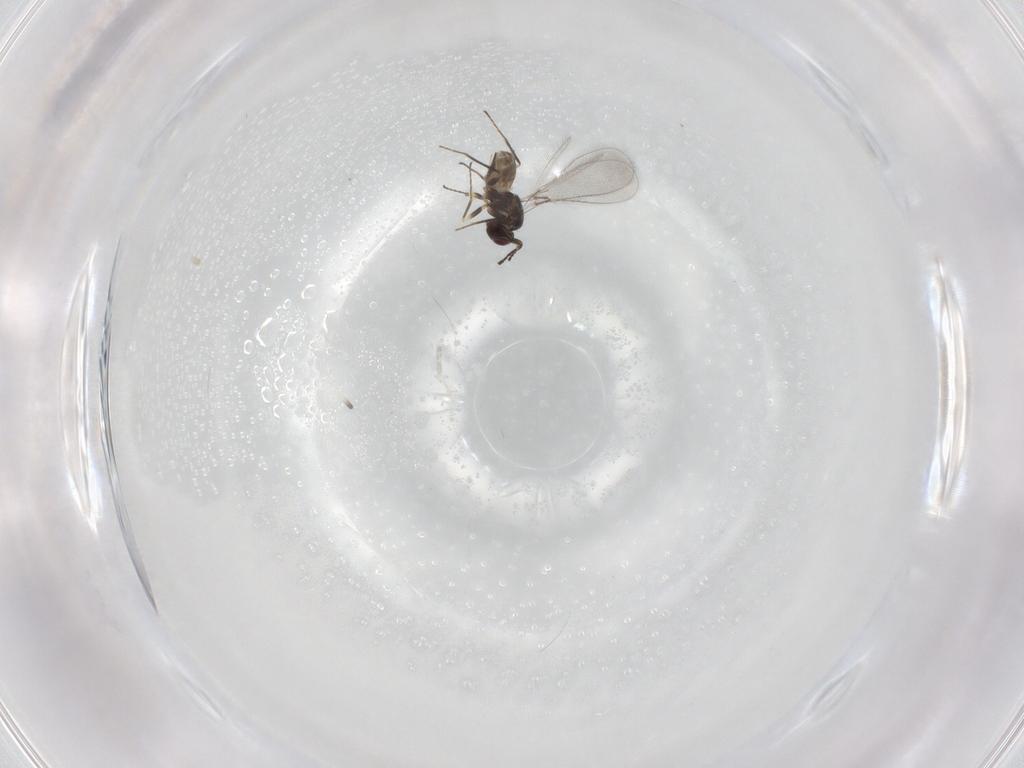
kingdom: Animalia
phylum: Arthropoda
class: Insecta
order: Hymenoptera
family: Mymaridae
